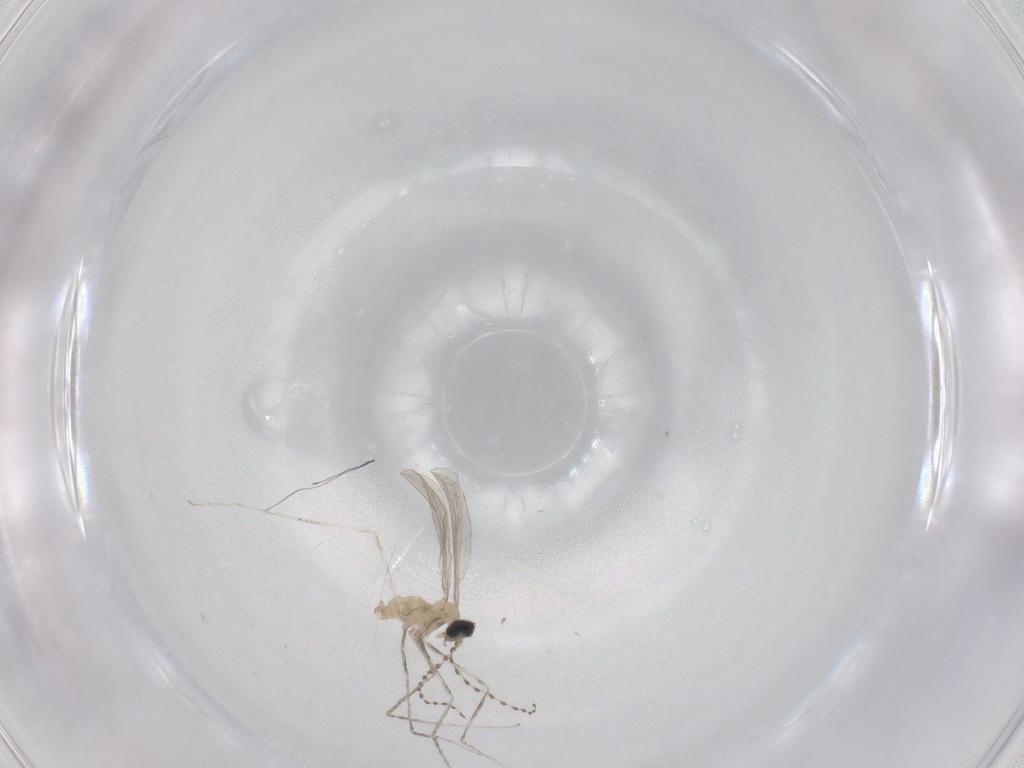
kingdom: Animalia
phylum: Arthropoda
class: Insecta
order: Diptera
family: Cecidomyiidae
